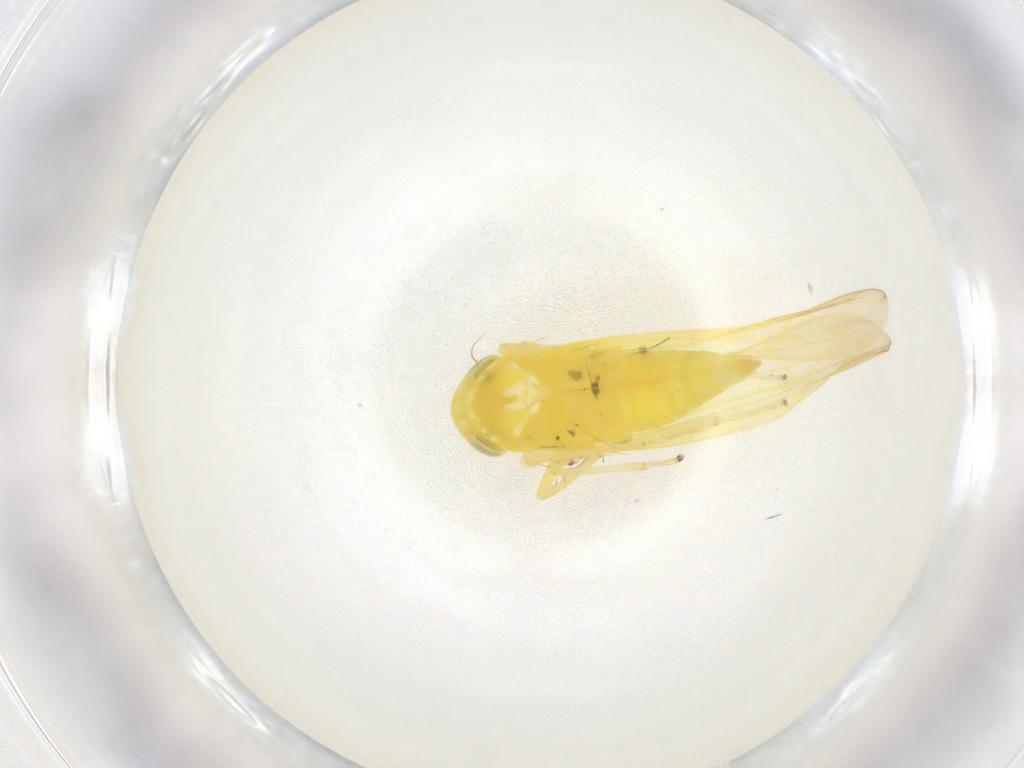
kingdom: Animalia
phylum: Arthropoda
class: Insecta
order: Hemiptera
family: Cicadellidae
